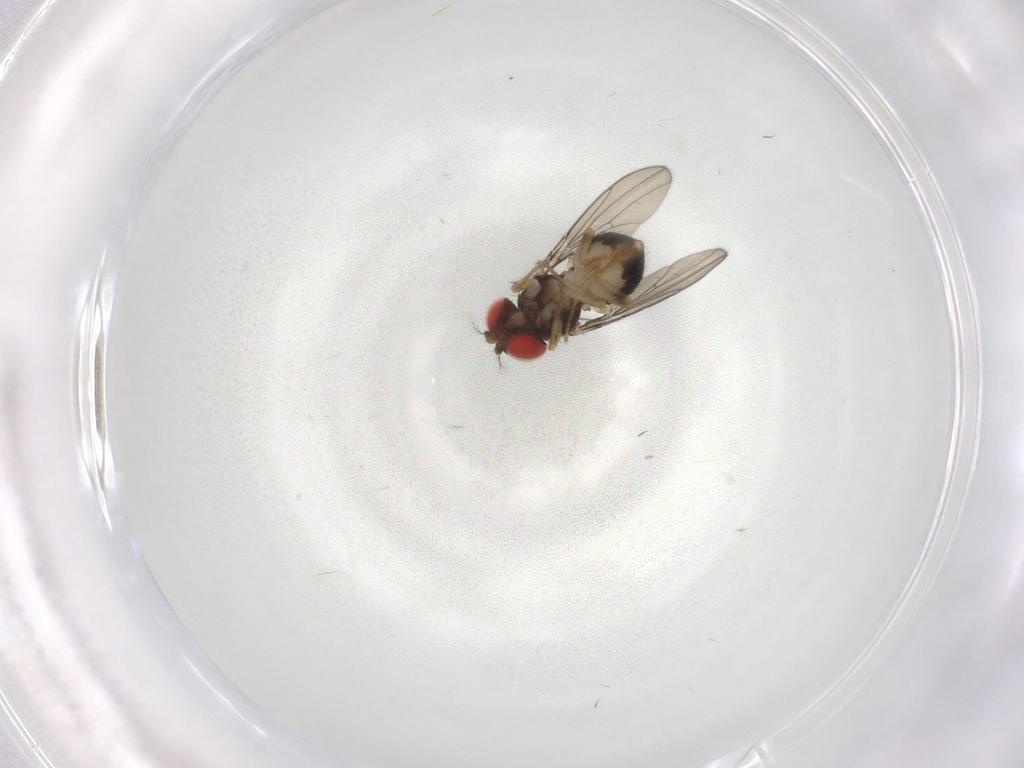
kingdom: Animalia
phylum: Arthropoda
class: Insecta
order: Diptera
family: Drosophilidae
